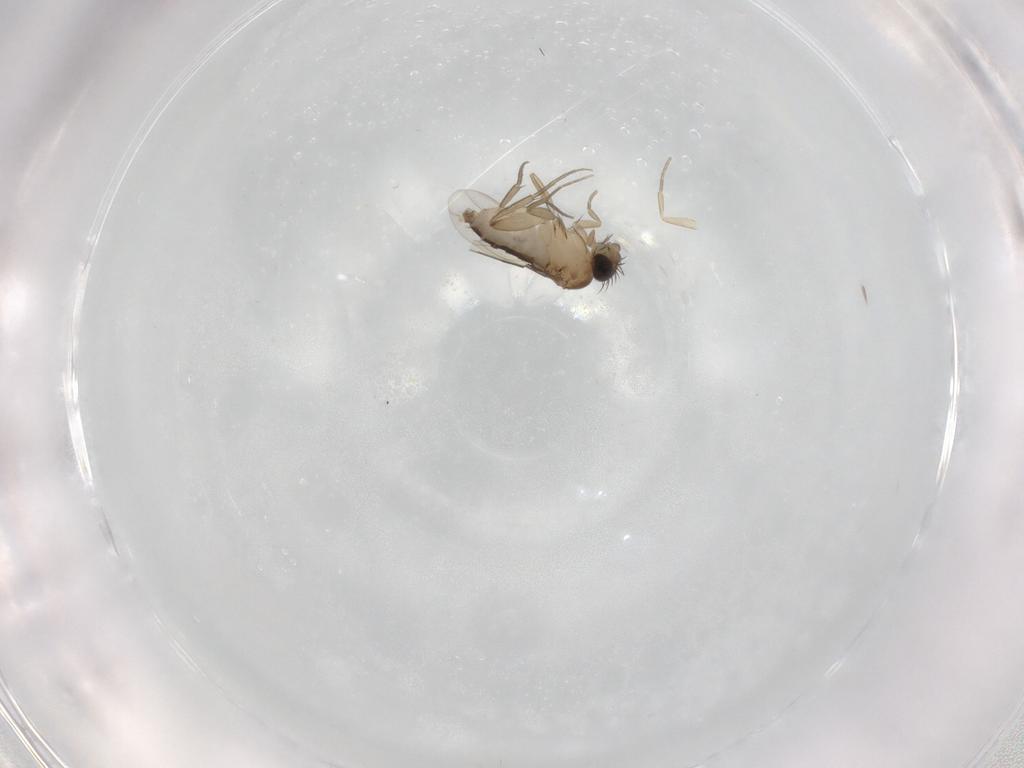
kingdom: Animalia
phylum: Arthropoda
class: Insecta
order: Diptera
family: Phoridae
